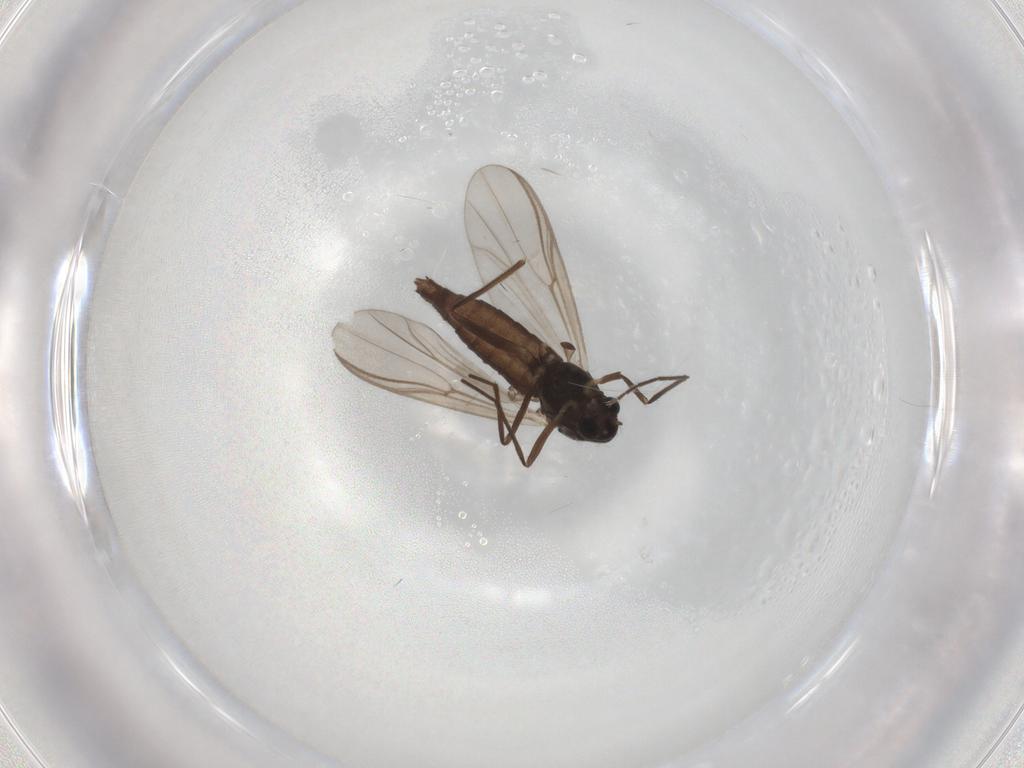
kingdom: Animalia
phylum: Arthropoda
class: Insecta
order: Diptera
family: Chironomidae
